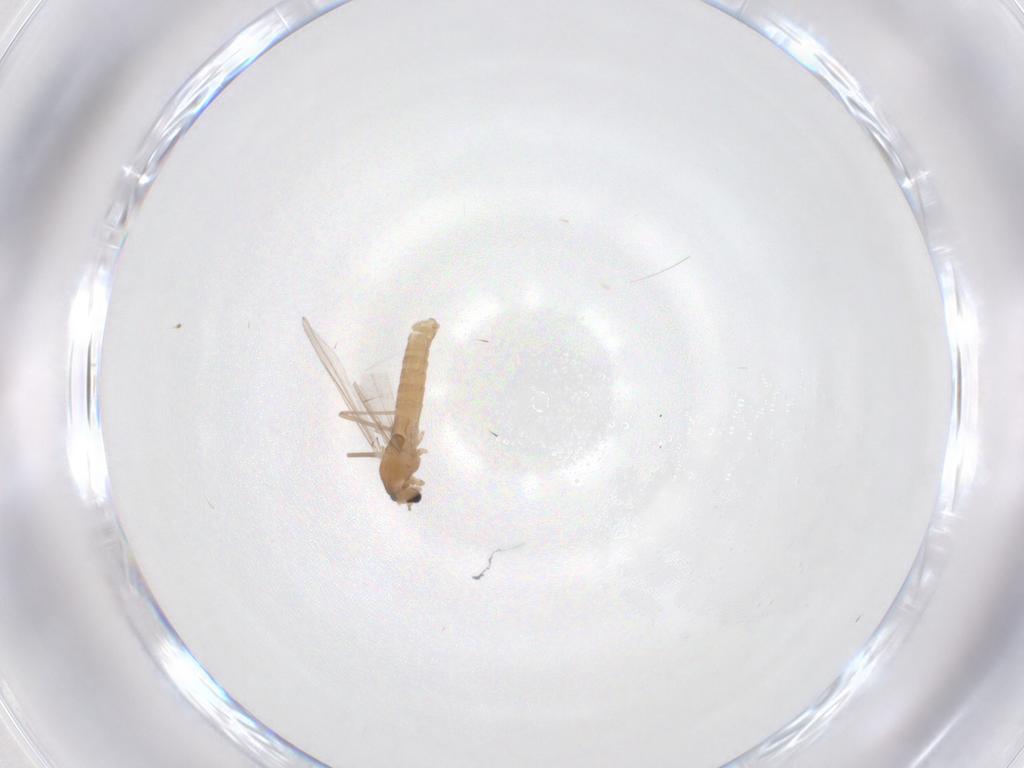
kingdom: Animalia
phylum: Arthropoda
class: Insecta
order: Diptera
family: Chironomidae
